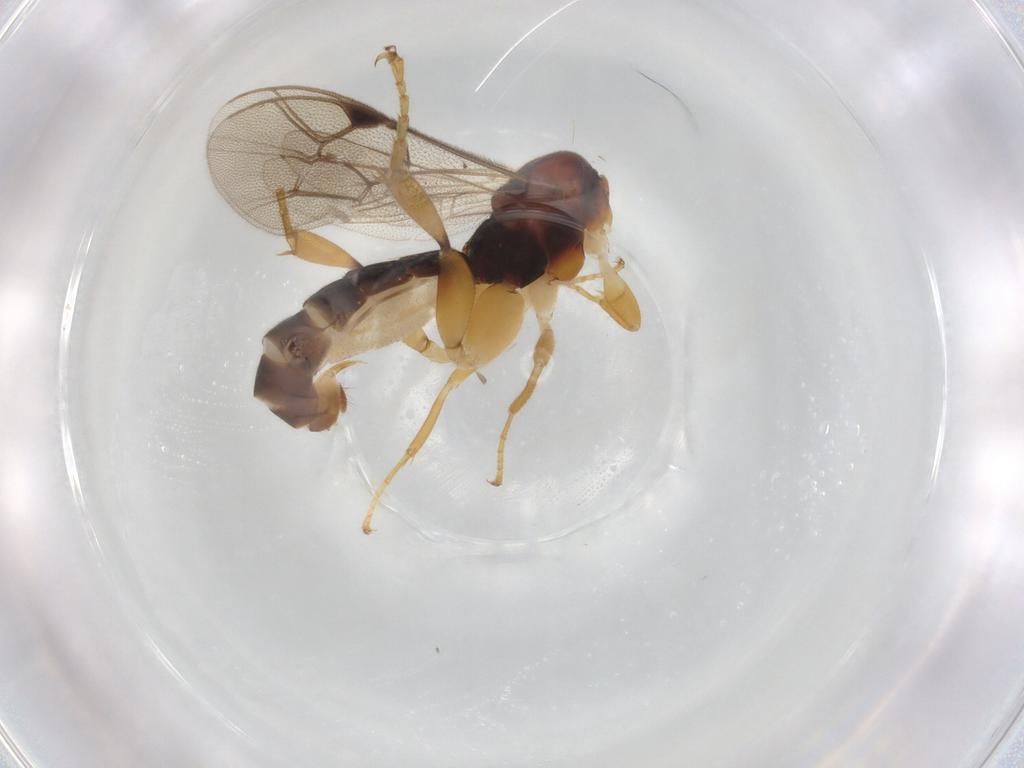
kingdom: Animalia
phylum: Arthropoda
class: Insecta
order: Hymenoptera
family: Ichneumonidae
